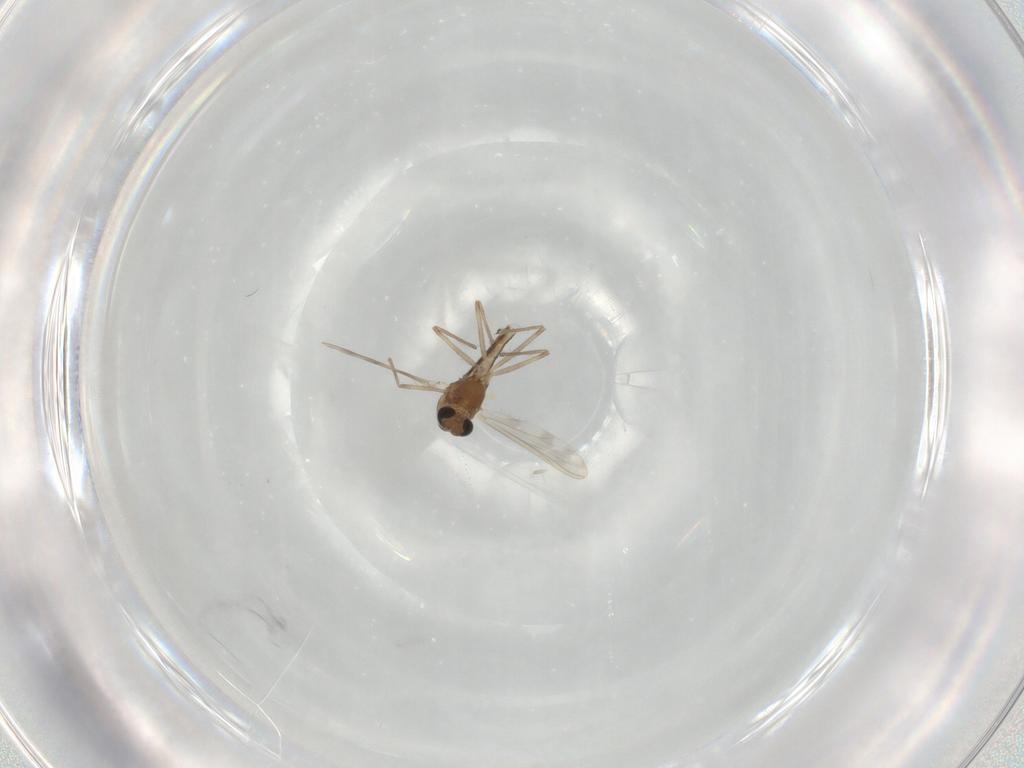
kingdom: Animalia
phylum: Arthropoda
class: Insecta
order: Diptera
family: Chironomidae
